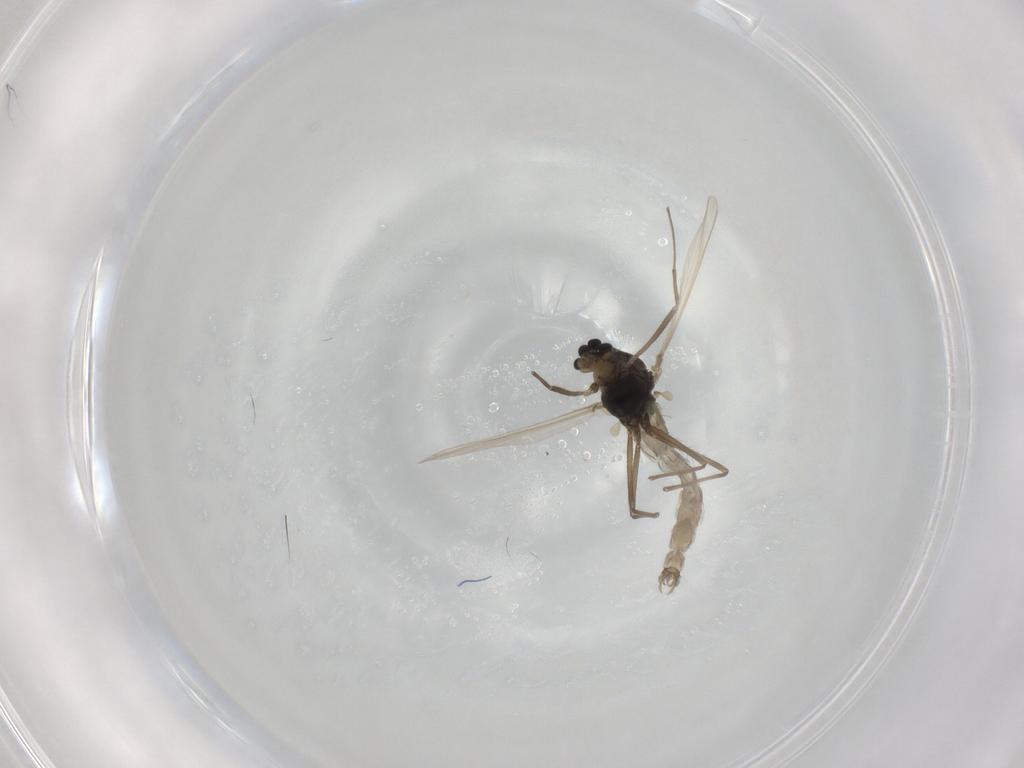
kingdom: Animalia
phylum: Arthropoda
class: Insecta
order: Diptera
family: Chironomidae
